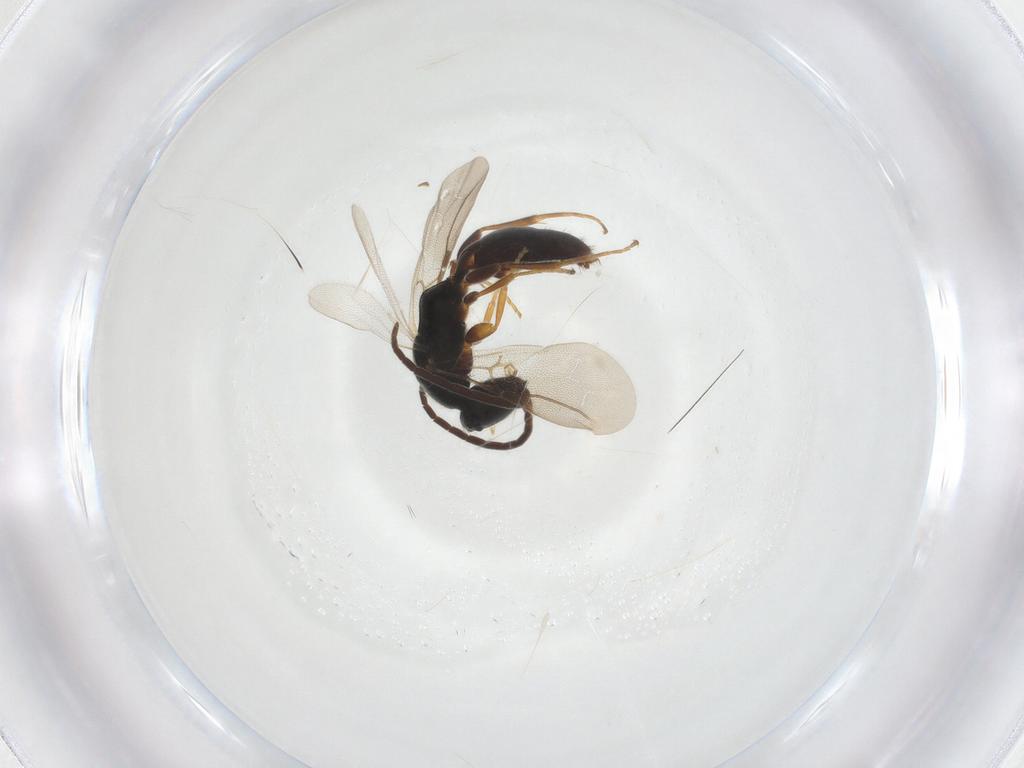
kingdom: Animalia
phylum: Arthropoda
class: Insecta
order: Hymenoptera
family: Bethylidae
